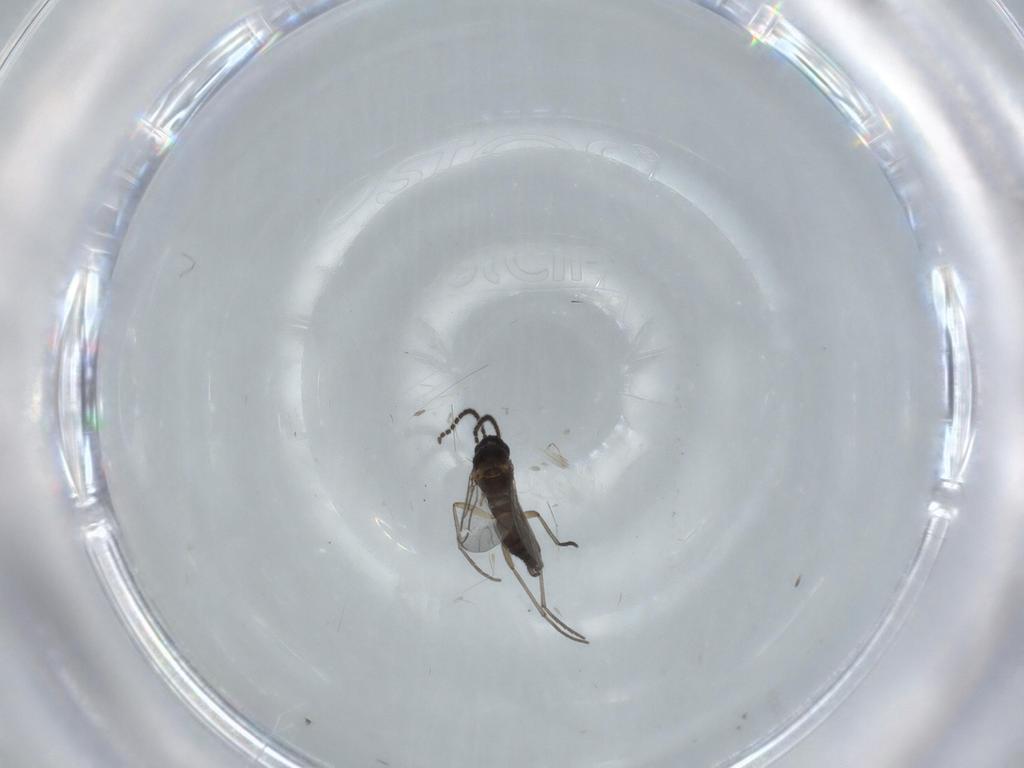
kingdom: Animalia
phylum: Arthropoda
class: Insecta
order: Diptera
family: Sciaridae
